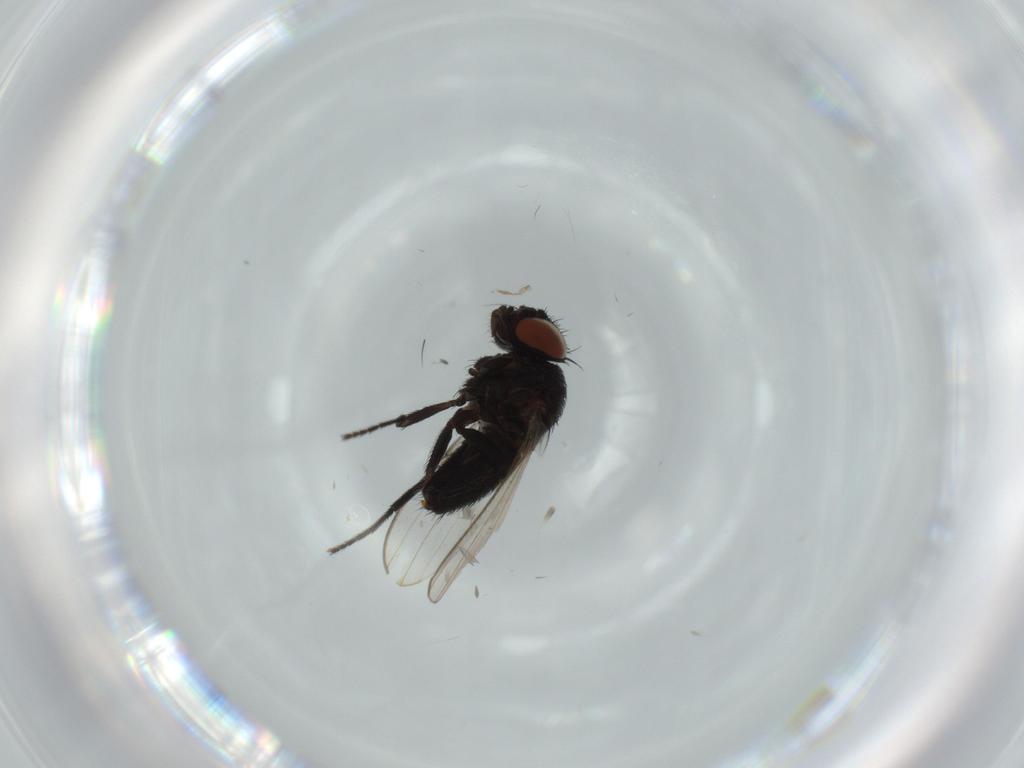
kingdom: Animalia
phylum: Arthropoda
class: Insecta
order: Diptera
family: Milichiidae
